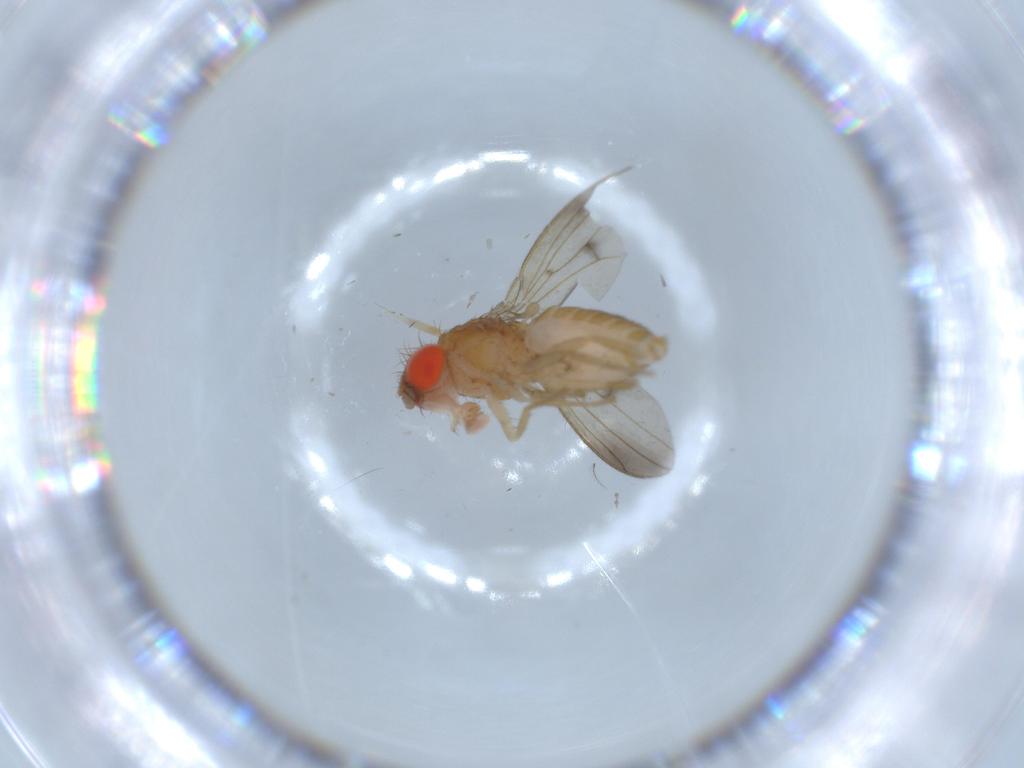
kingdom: Animalia
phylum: Arthropoda
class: Insecta
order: Diptera
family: Drosophilidae
